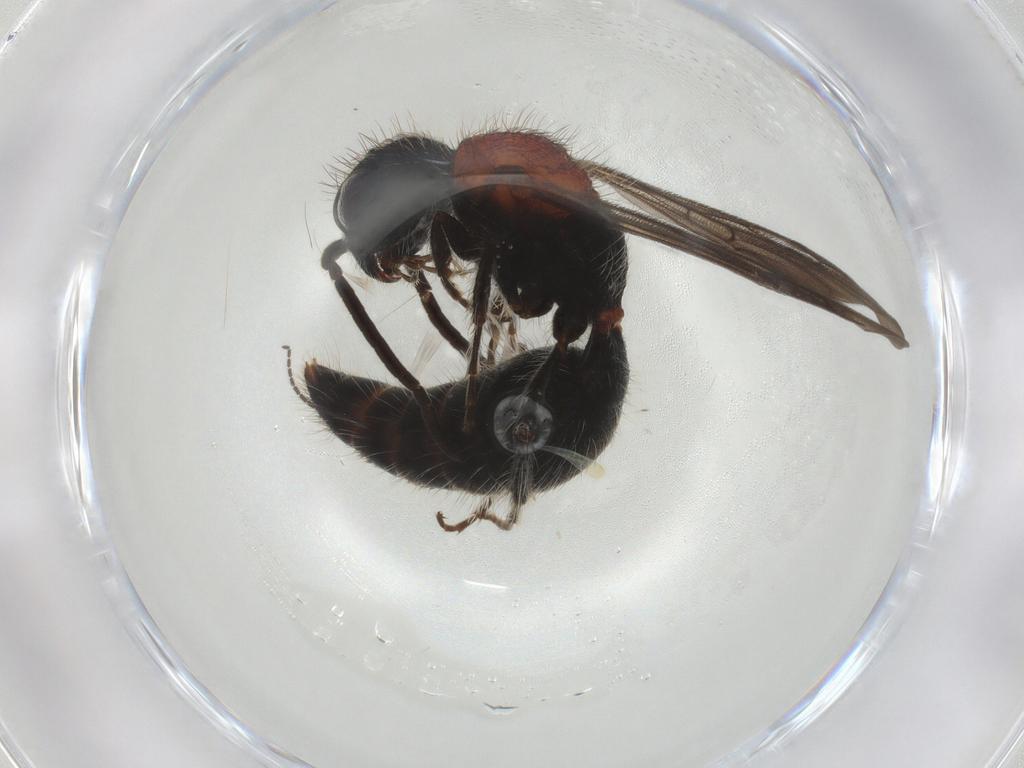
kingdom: Animalia
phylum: Arthropoda
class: Insecta
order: Diptera
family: Sciaridae
